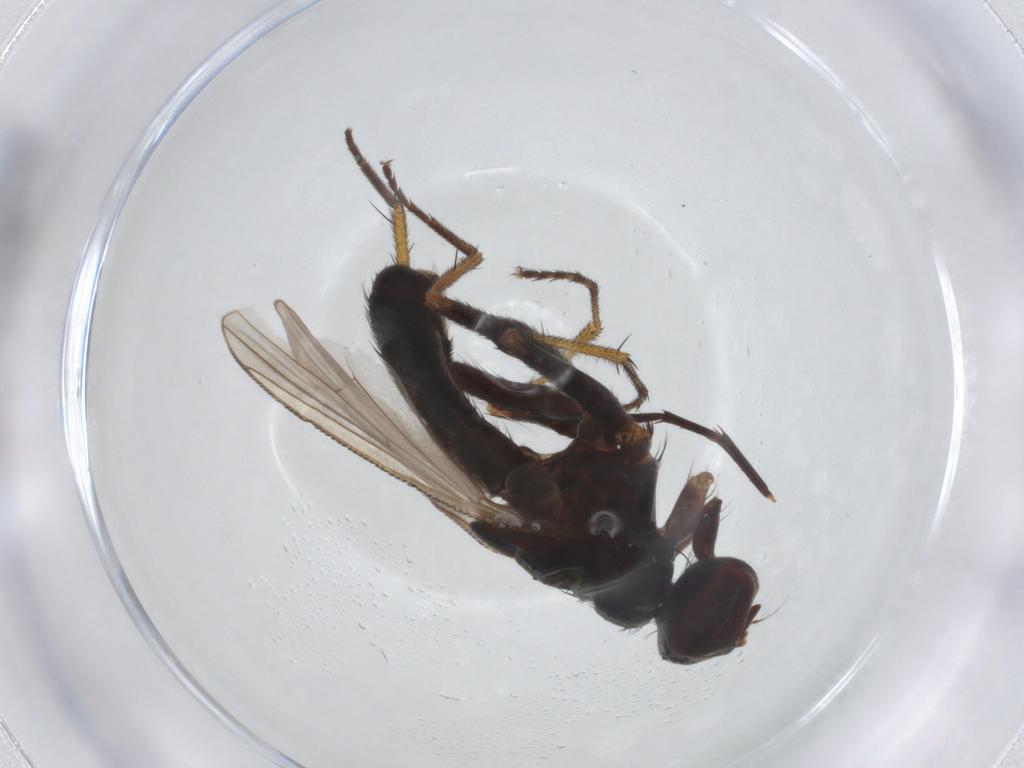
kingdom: Animalia
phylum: Arthropoda
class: Insecta
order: Diptera
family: Muscidae
